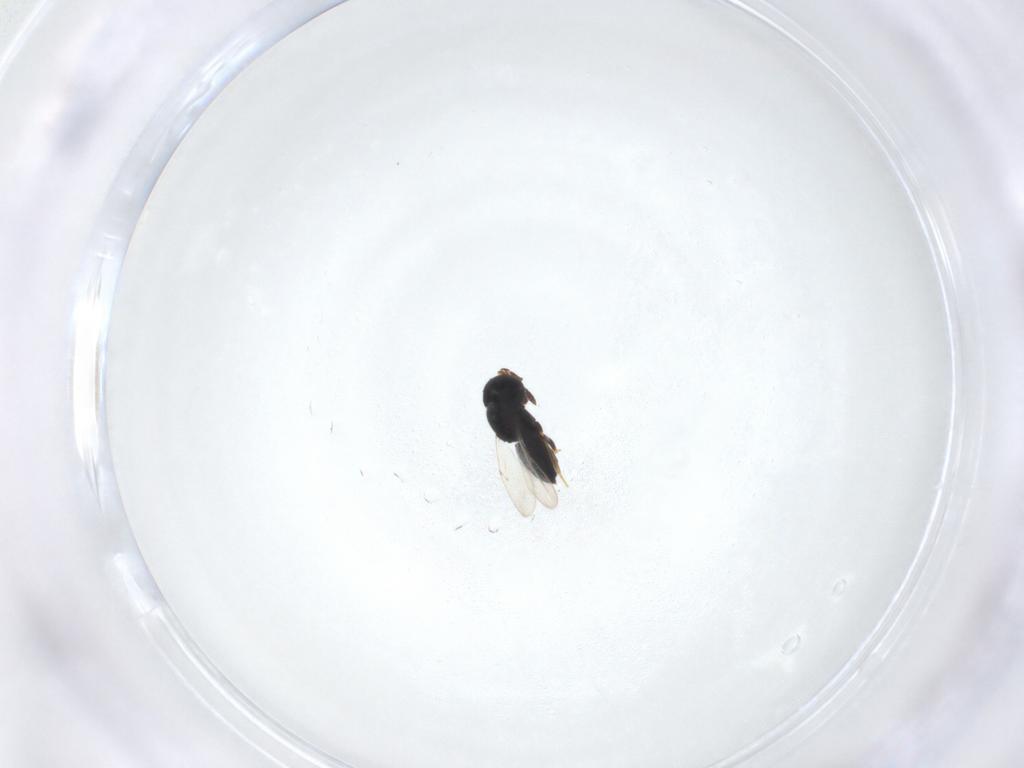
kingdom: Animalia
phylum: Arthropoda
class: Insecta
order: Hymenoptera
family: Scelionidae
